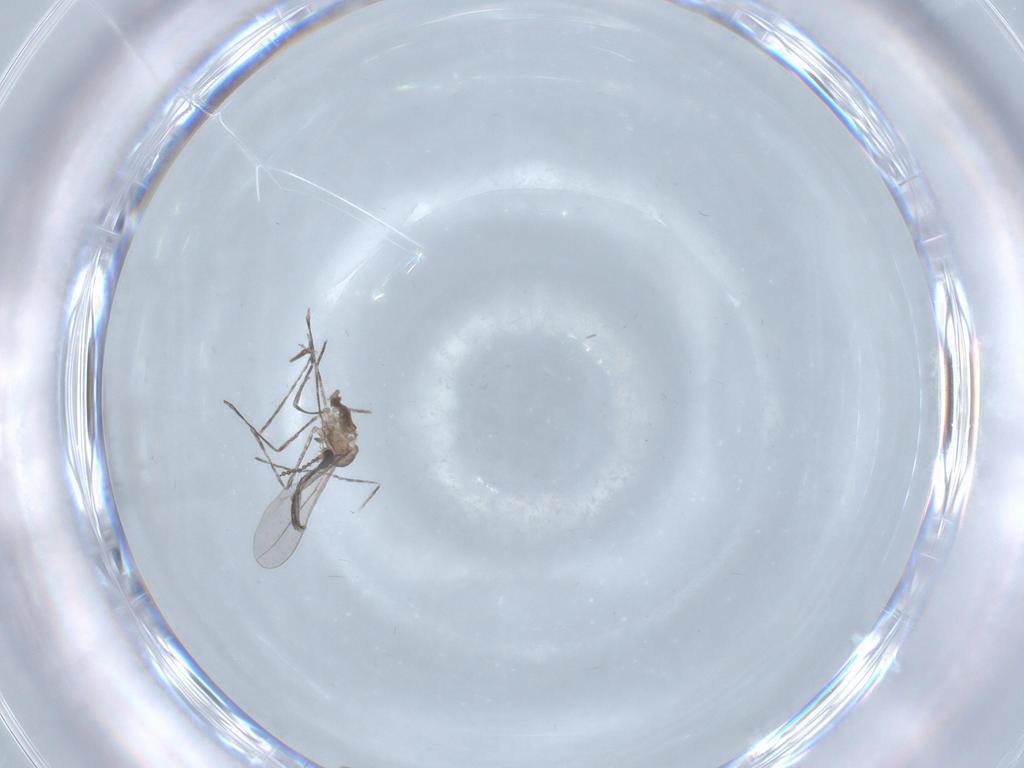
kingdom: Animalia
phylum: Arthropoda
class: Insecta
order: Diptera
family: Cecidomyiidae
